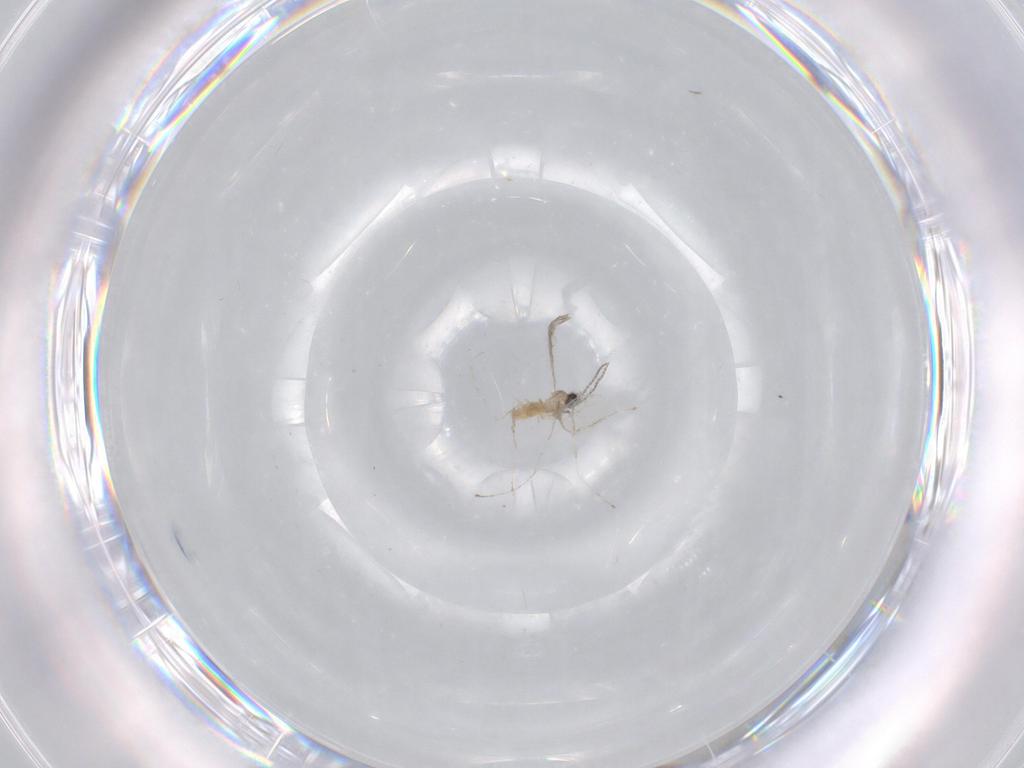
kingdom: Animalia
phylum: Arthropoda
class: Insecta
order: Diptera
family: Cecidomyiidae
